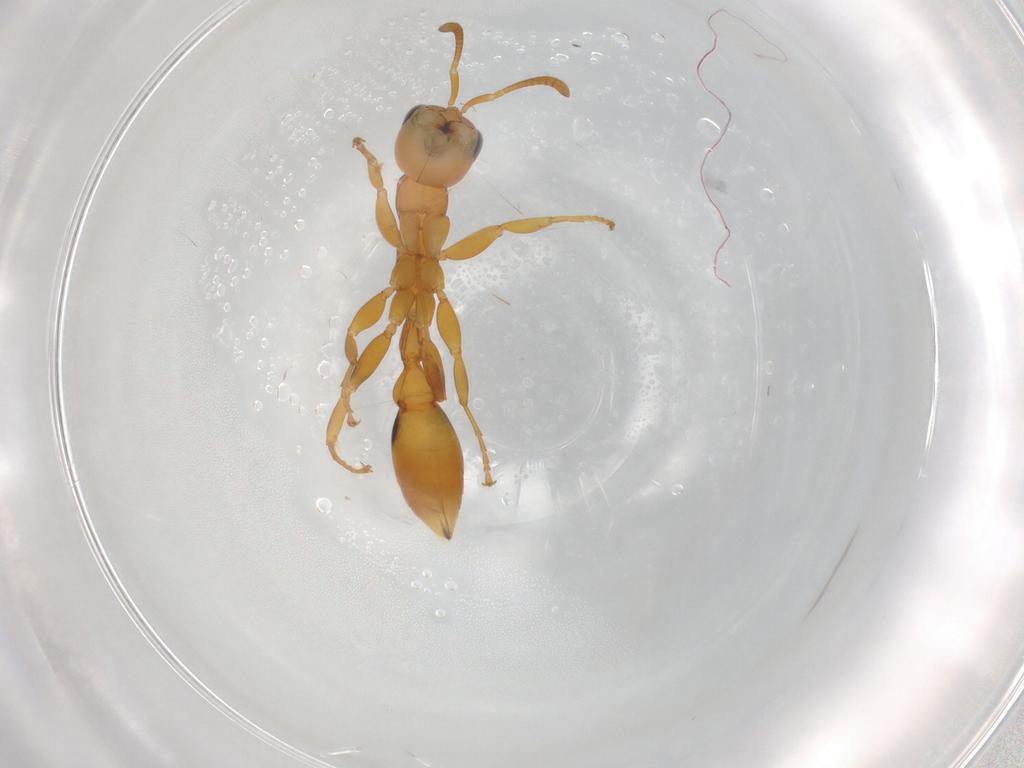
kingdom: Animalia
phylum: Arthropoda
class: Insecta
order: Hymenoptera
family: Formicidae
